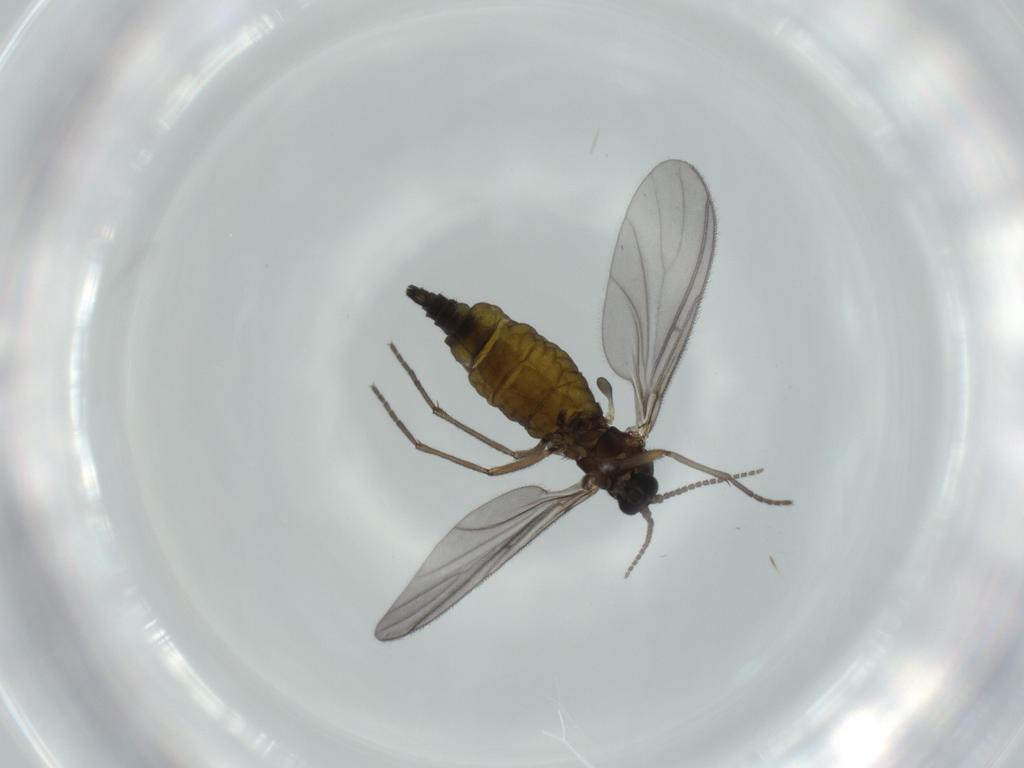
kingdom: Animalia
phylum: Arthropoda
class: Insecta
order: Diptera
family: Sciaridae
